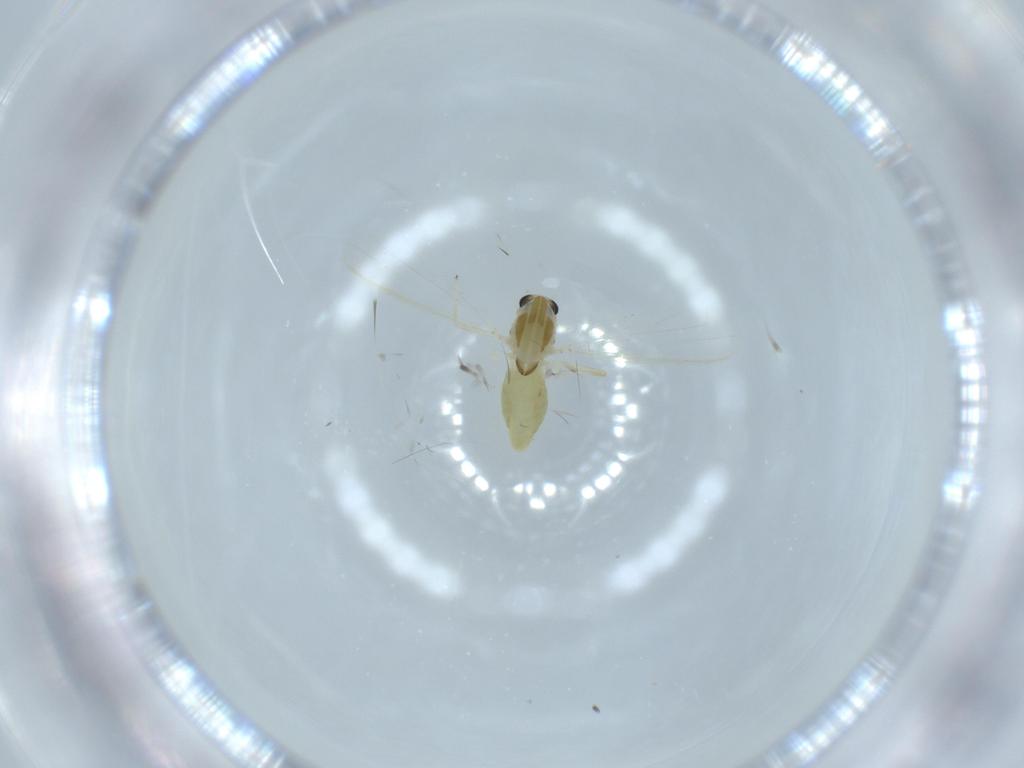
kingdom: Animalia
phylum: Arthropoda
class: Insecta
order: Diptera
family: Chironomidae
